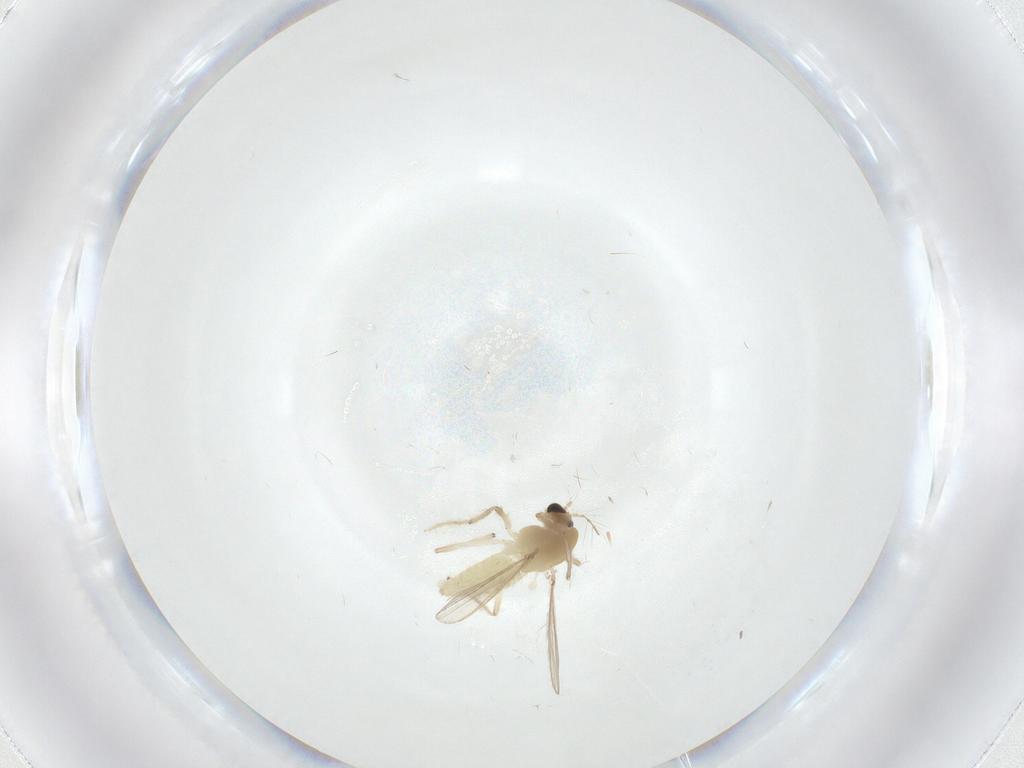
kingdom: Animalia
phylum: Arthropoda
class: Insecta
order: Diptera
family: Chironomidae
